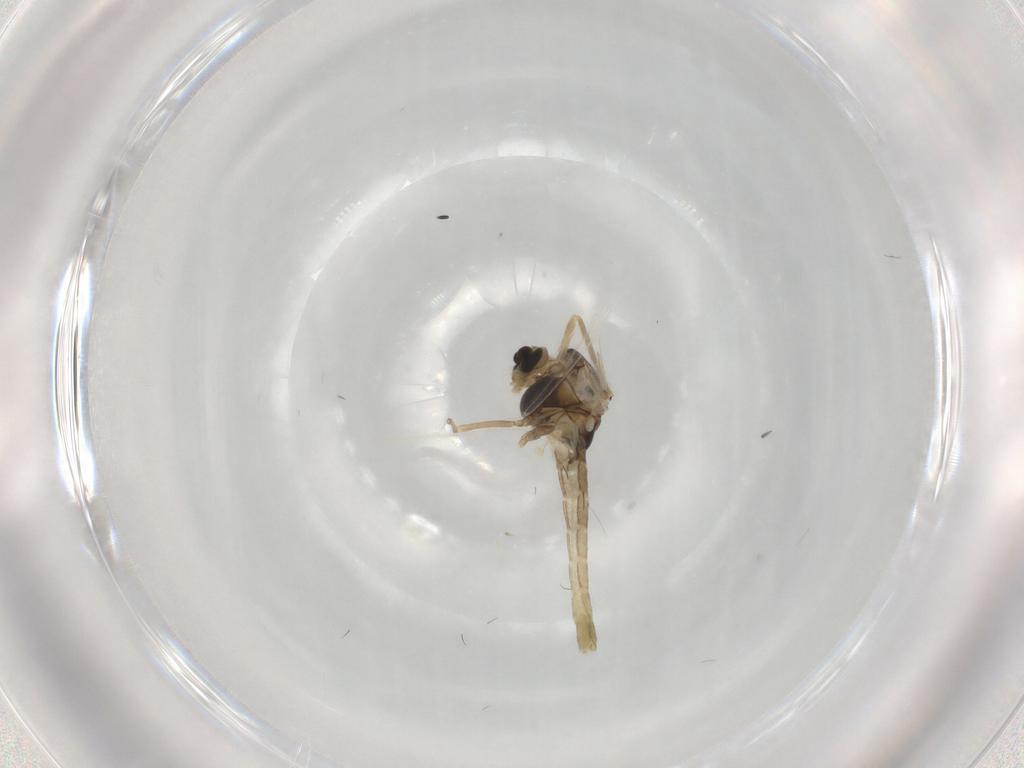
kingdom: Animalia
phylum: Arthropoda
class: Insecta
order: Diptera
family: Chironomidae
